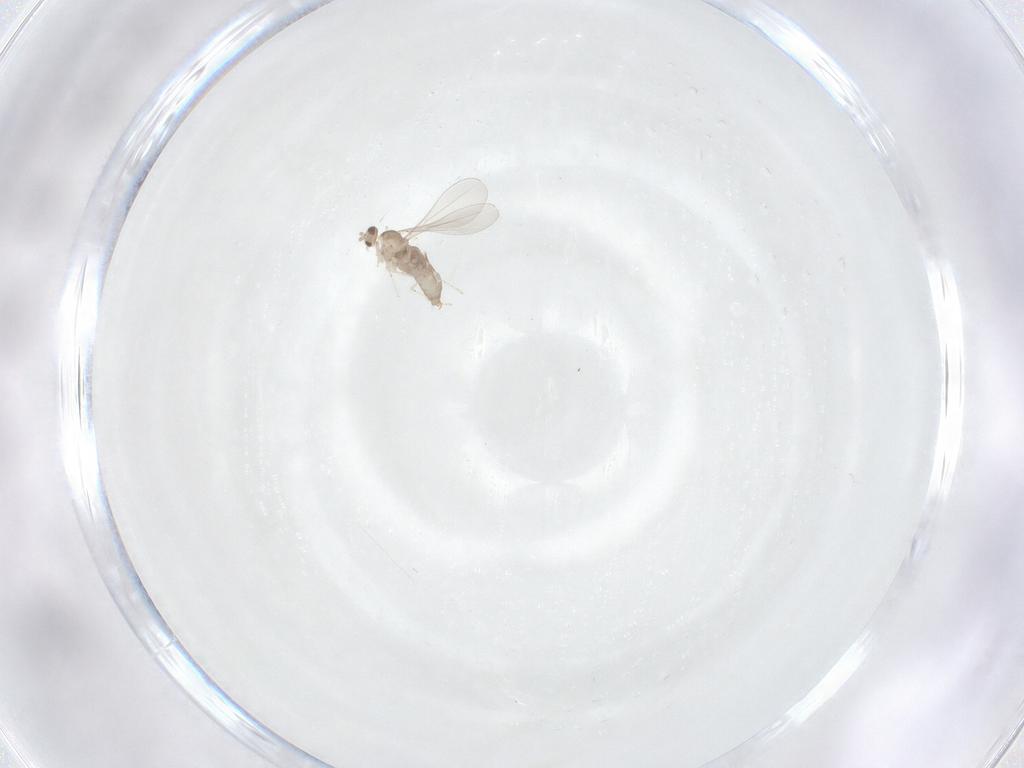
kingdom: Animalia
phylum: Arthropoda
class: Insecta
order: Diptera
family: Cecidomyiidae
